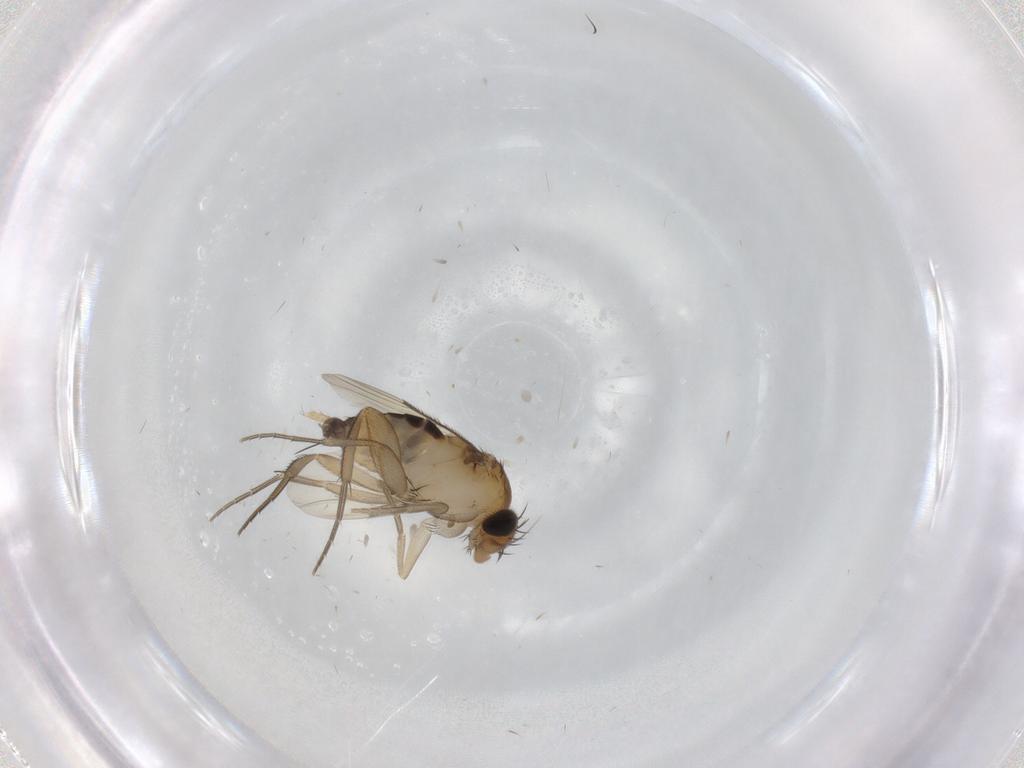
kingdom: Animalia
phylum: Arthropoda
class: Insecta
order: Diptera
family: Phoridae
